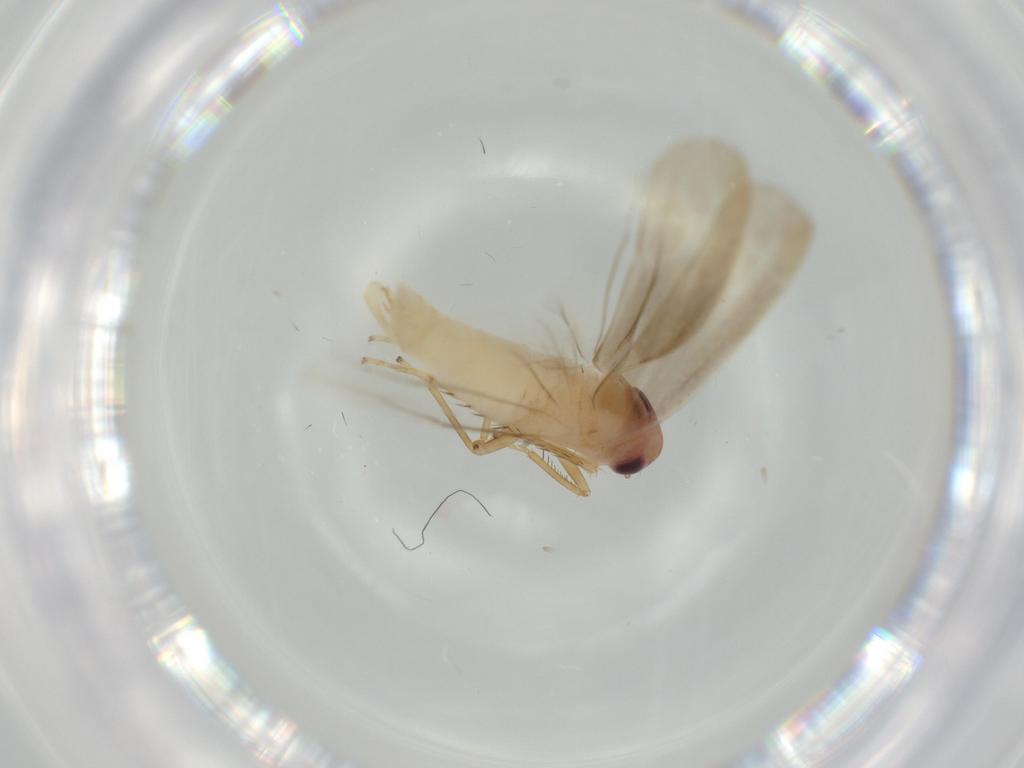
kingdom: Animalia
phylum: Arthropoda
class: Insecta
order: Hemiptera
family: Cicadellidae
